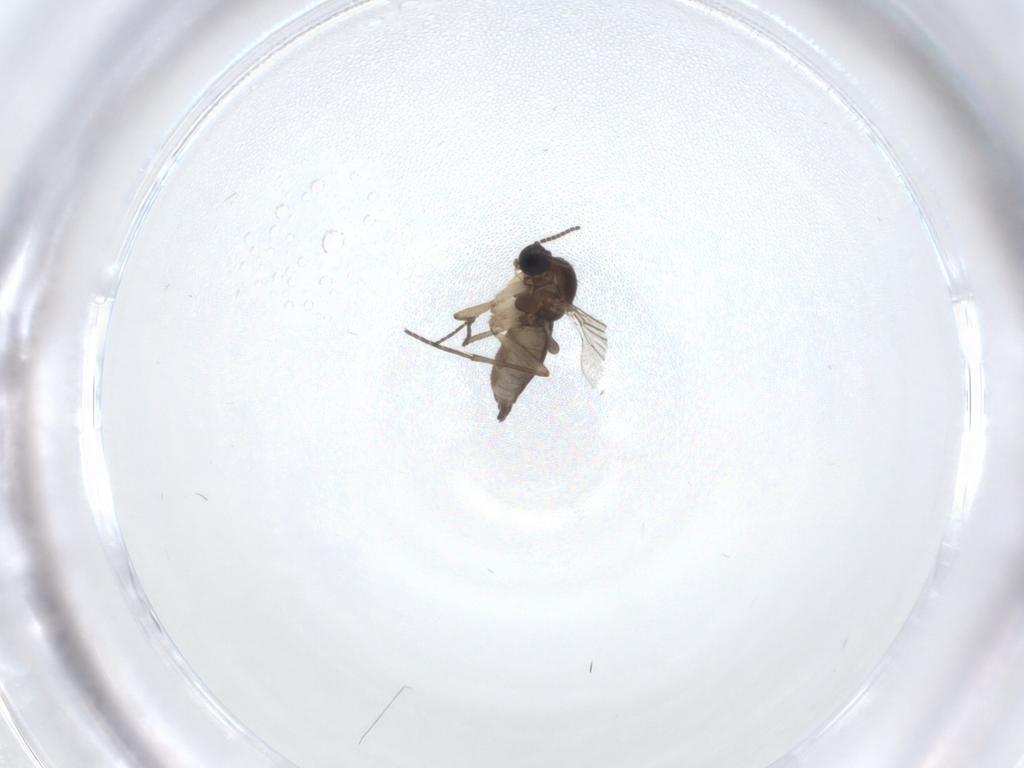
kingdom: Animalia
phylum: Arthropoda
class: Insecta
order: Diptera
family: Sciaridae
